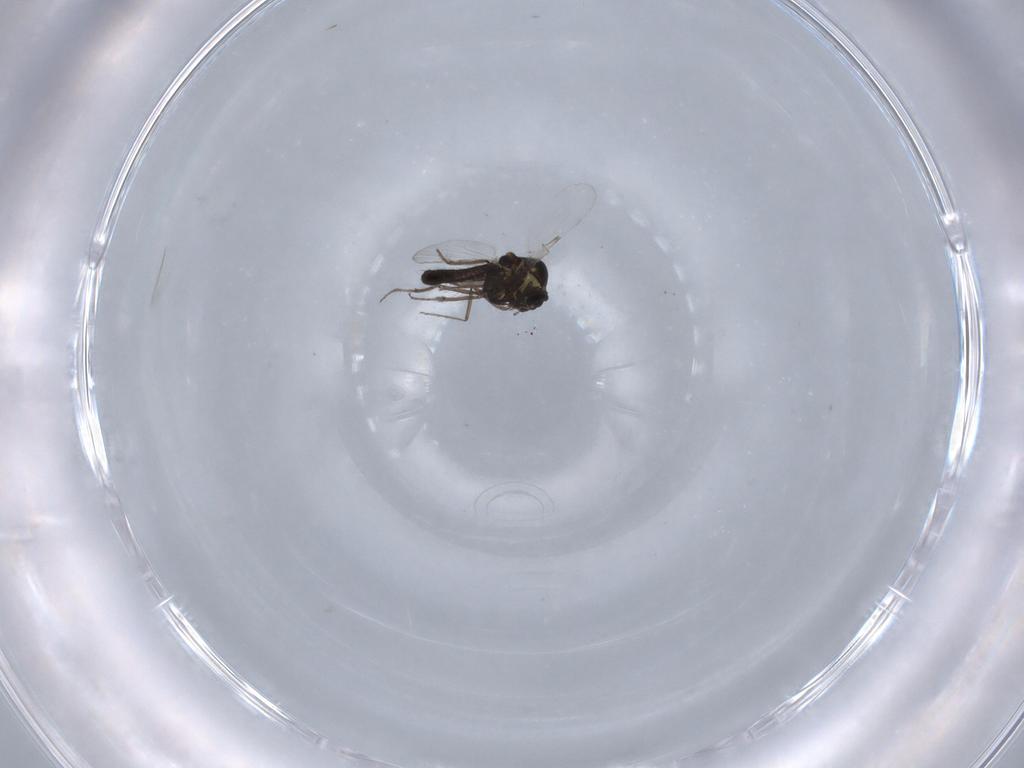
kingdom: Animalia
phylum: Arthropoda
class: Insecta
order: Diptera
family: Ceratopogonidae
